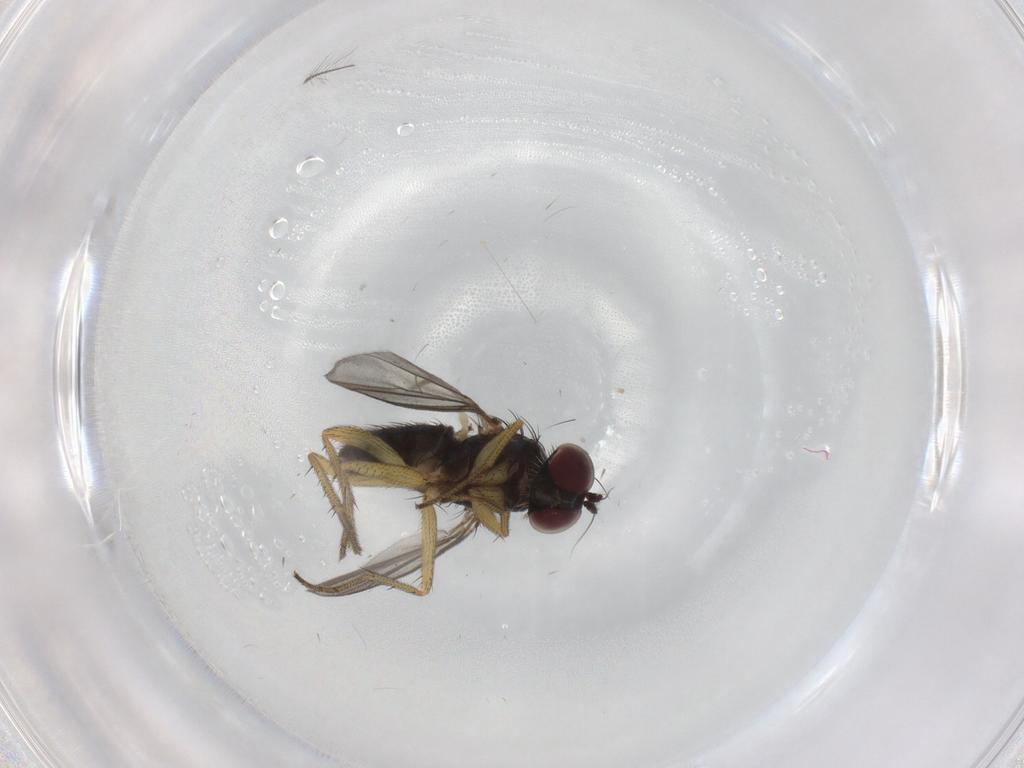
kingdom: Animalia
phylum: Arthropoda
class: Insecta
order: Diptera
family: Chironomidae
